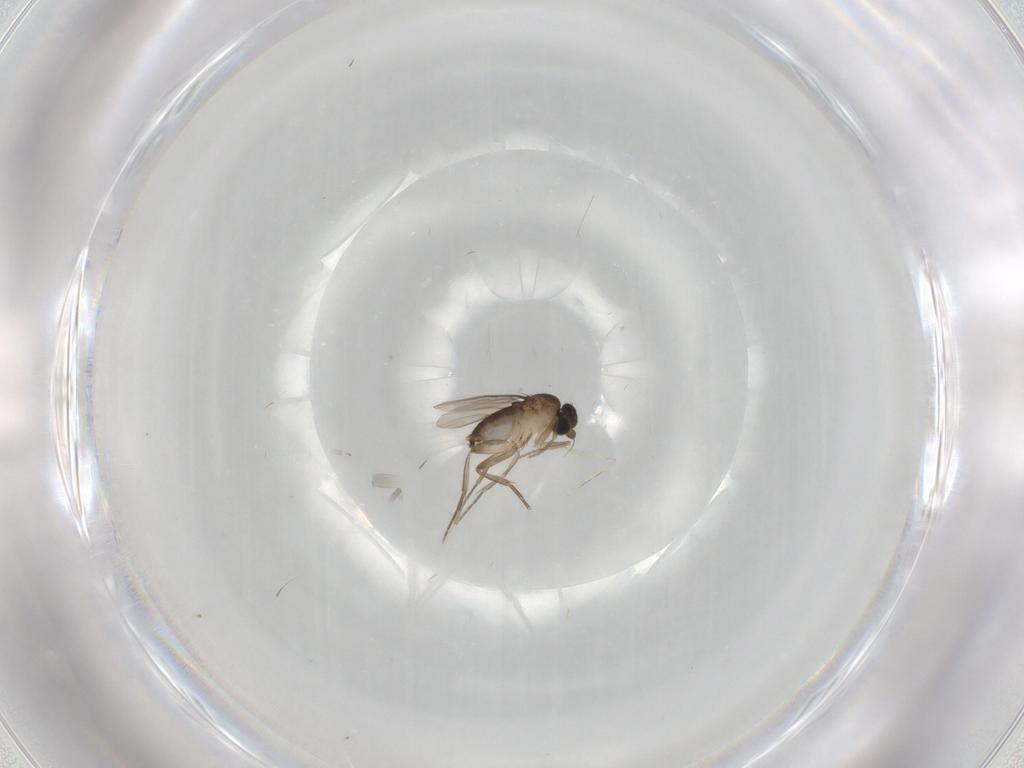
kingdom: Animalia
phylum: Arthropoda
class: Insecta
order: Diptera
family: Phoridae
